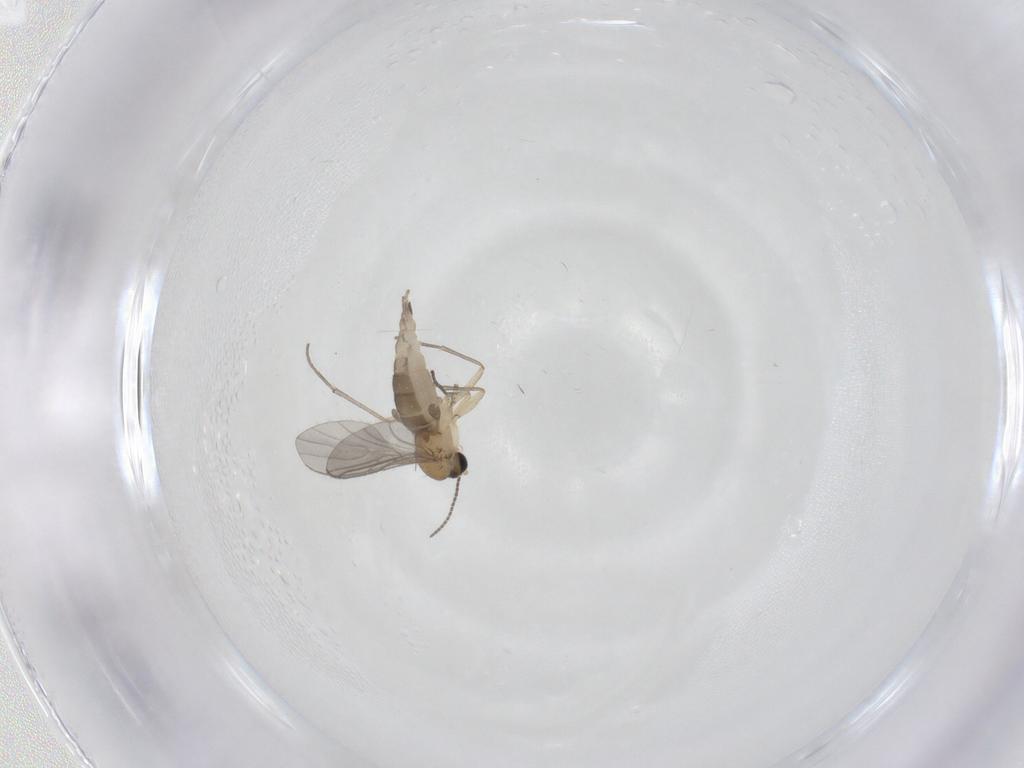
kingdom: Animalia
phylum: Arthropoda
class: Insecta
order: Diptera
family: Sciaridae
